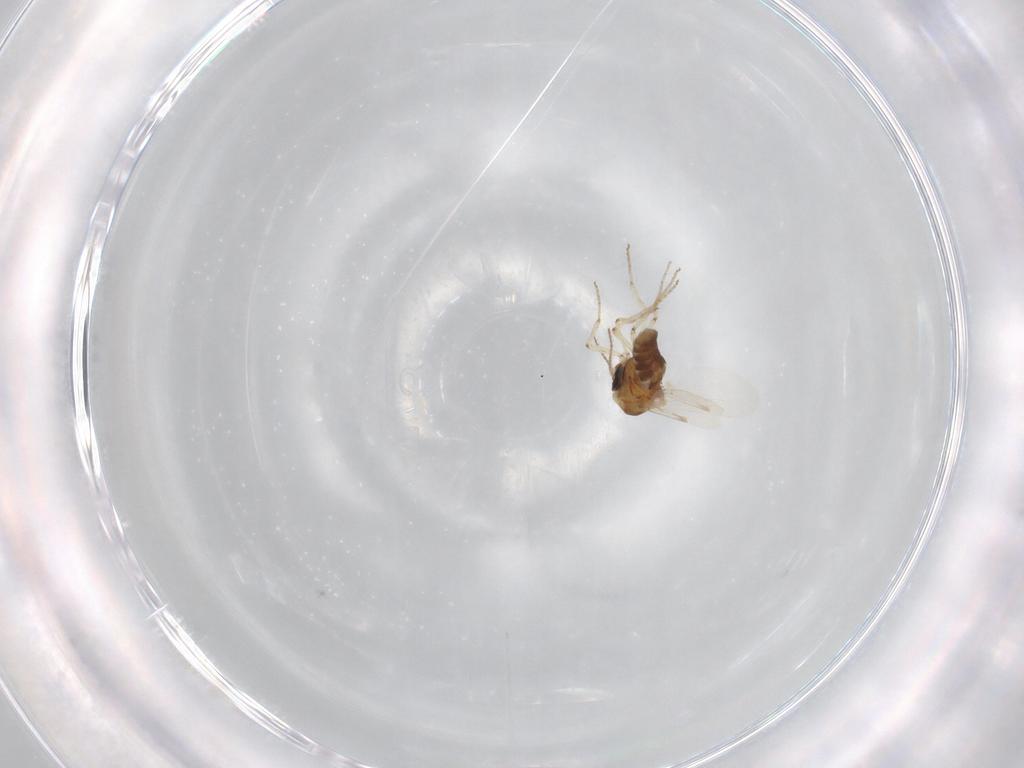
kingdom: Animalia
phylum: Arthropoda
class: Insecta
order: Diptera
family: Ceratopogonidae
